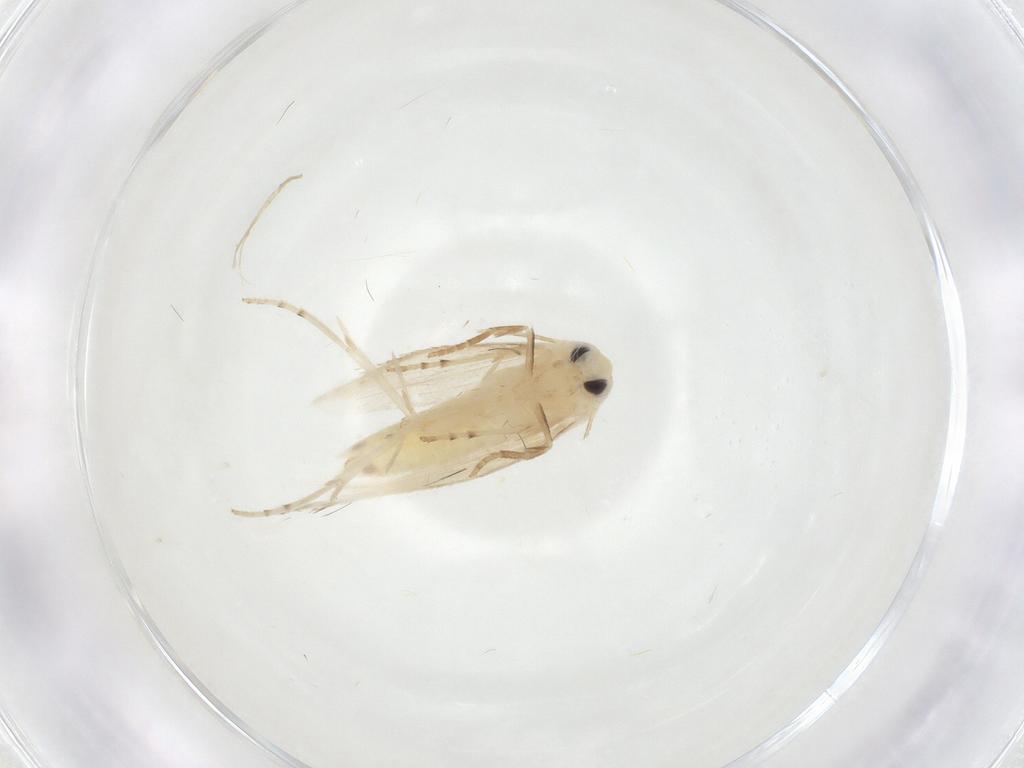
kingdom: Animalia
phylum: Arthropoda
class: Insecta
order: Lepidoptera
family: Lyonetiidae
